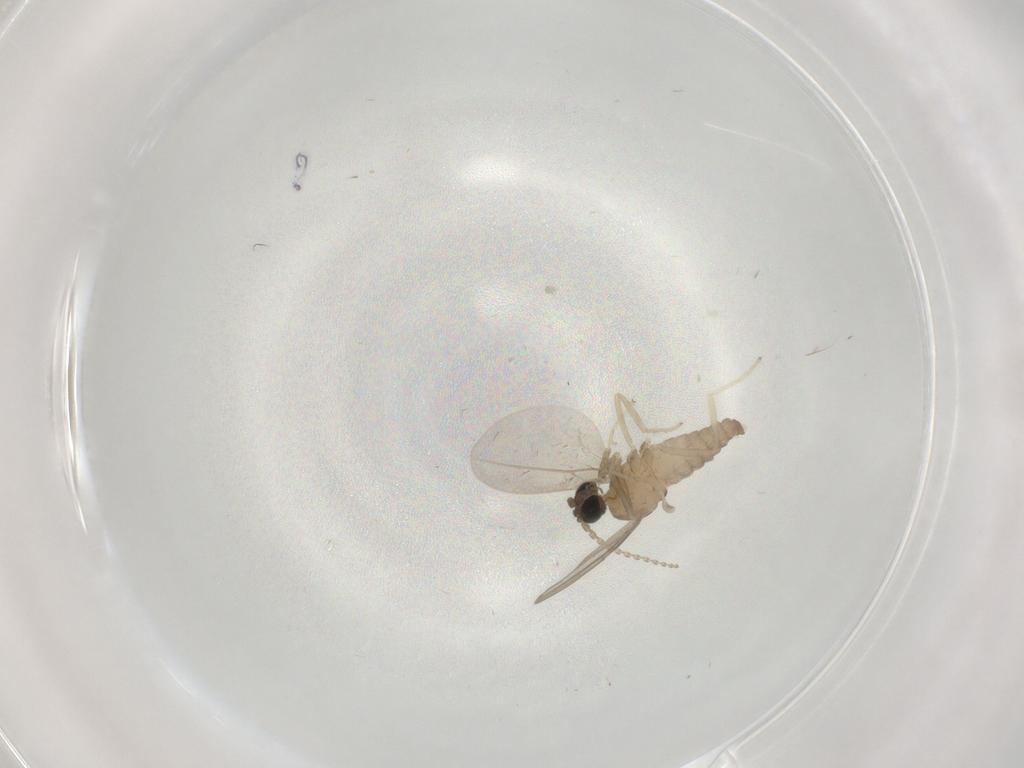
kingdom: Animalia
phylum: Arthropoda
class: Insecta
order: Diptera
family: Cecidomyiidae
